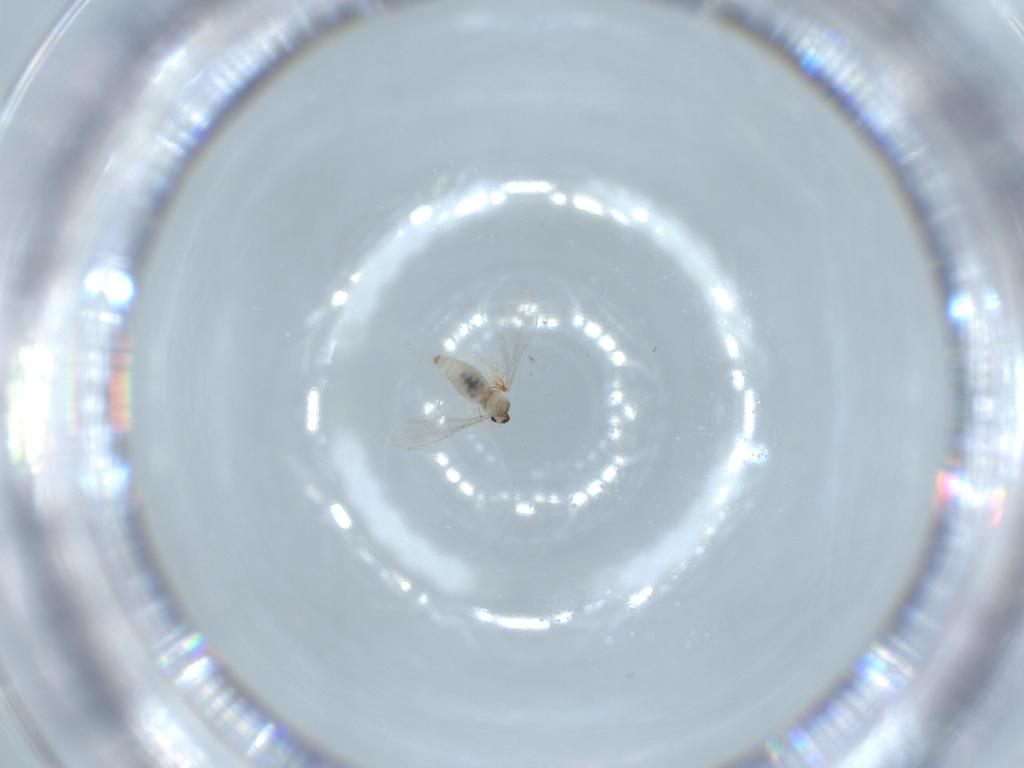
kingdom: Animalia
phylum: Arthropoda
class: Insecta
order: Diptera
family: Cecidomyiidae
